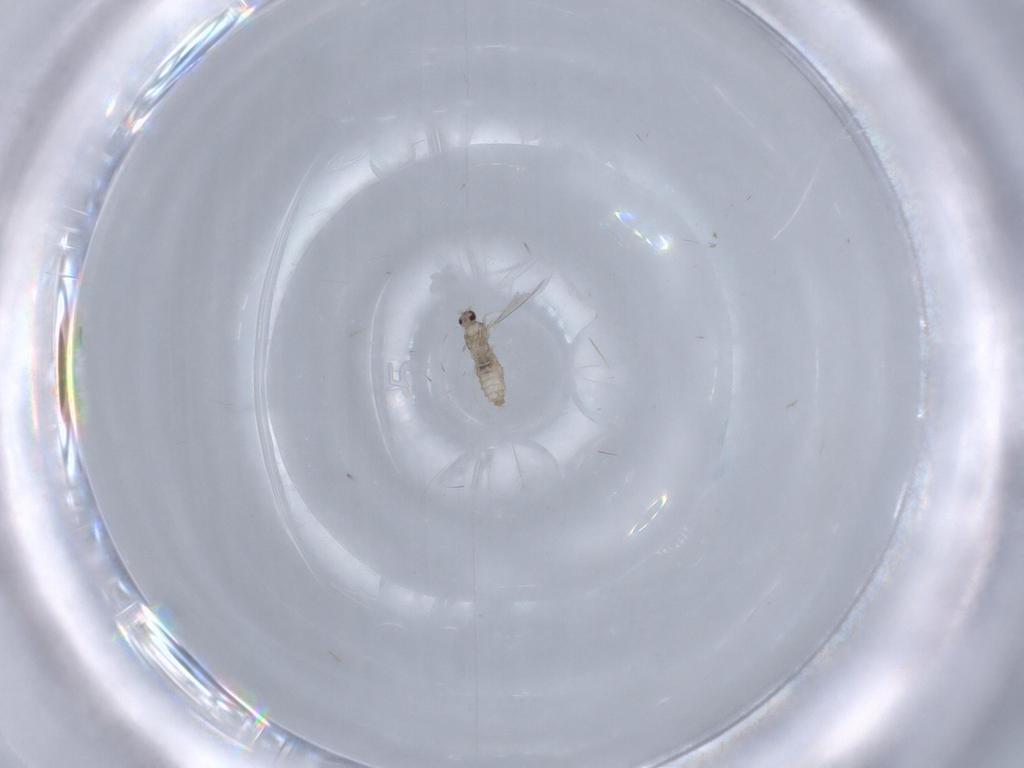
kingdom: Animalia
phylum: Arthropoda
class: Insecta
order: Diptera
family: Cecidomyiidae
